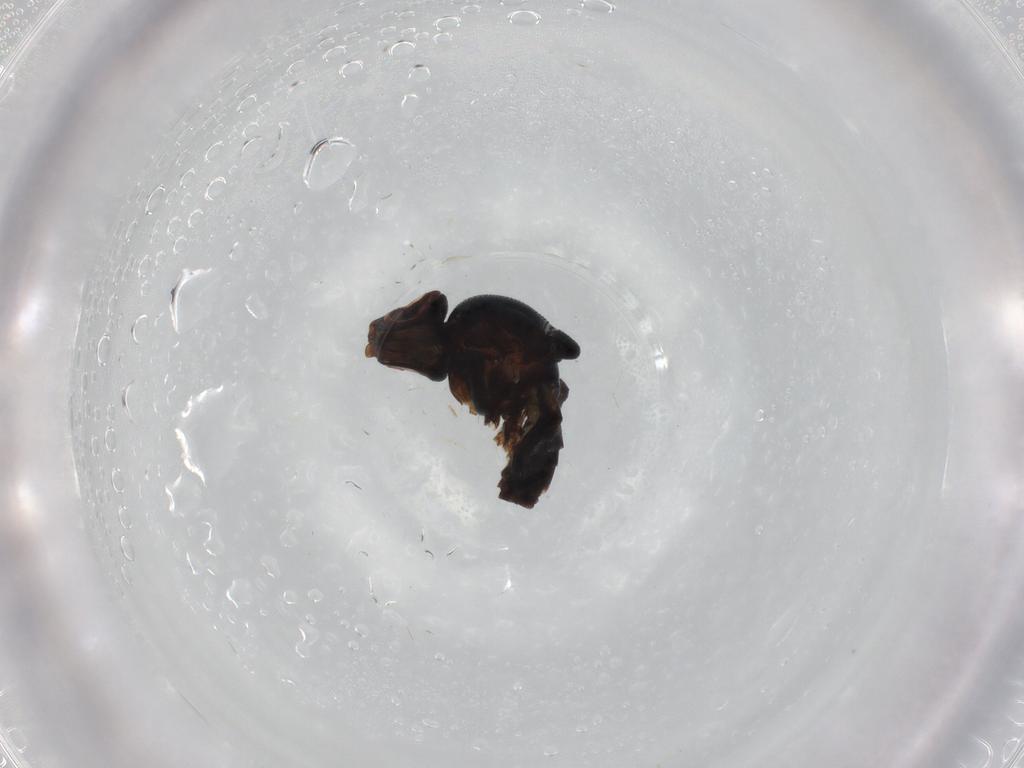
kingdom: Animalia
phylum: Arthropoda
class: Insecta
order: Diptera
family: Chloropidae
